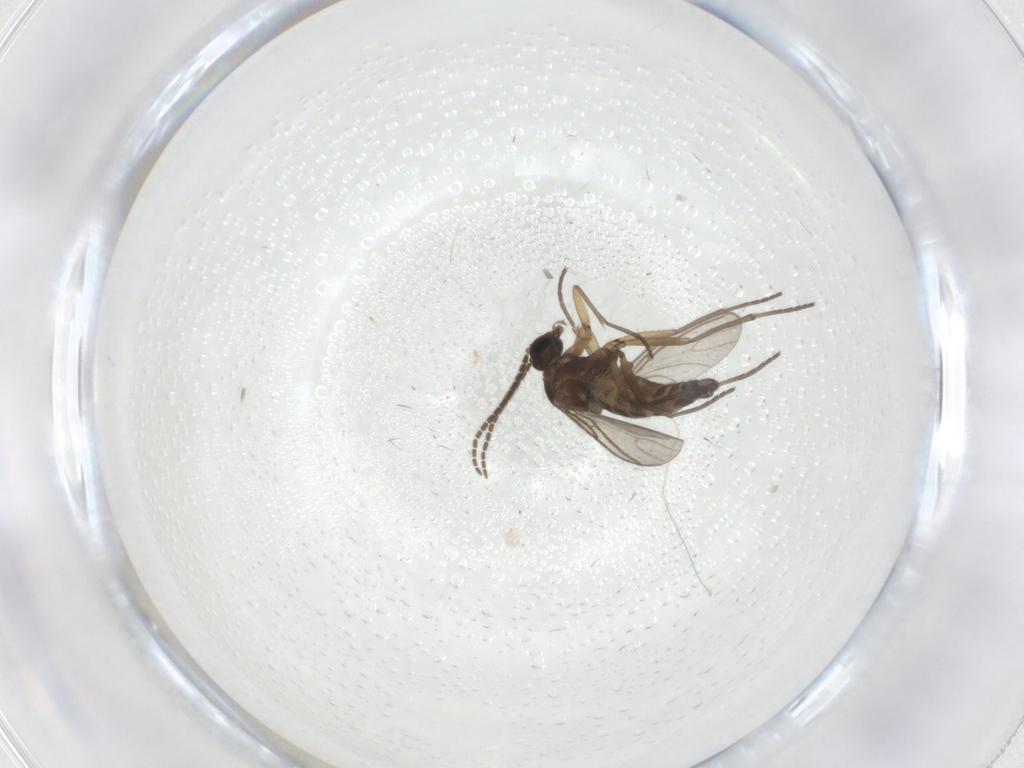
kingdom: Animalia
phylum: Arthropoda
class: Insecta
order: Diptera
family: Sciaridae
